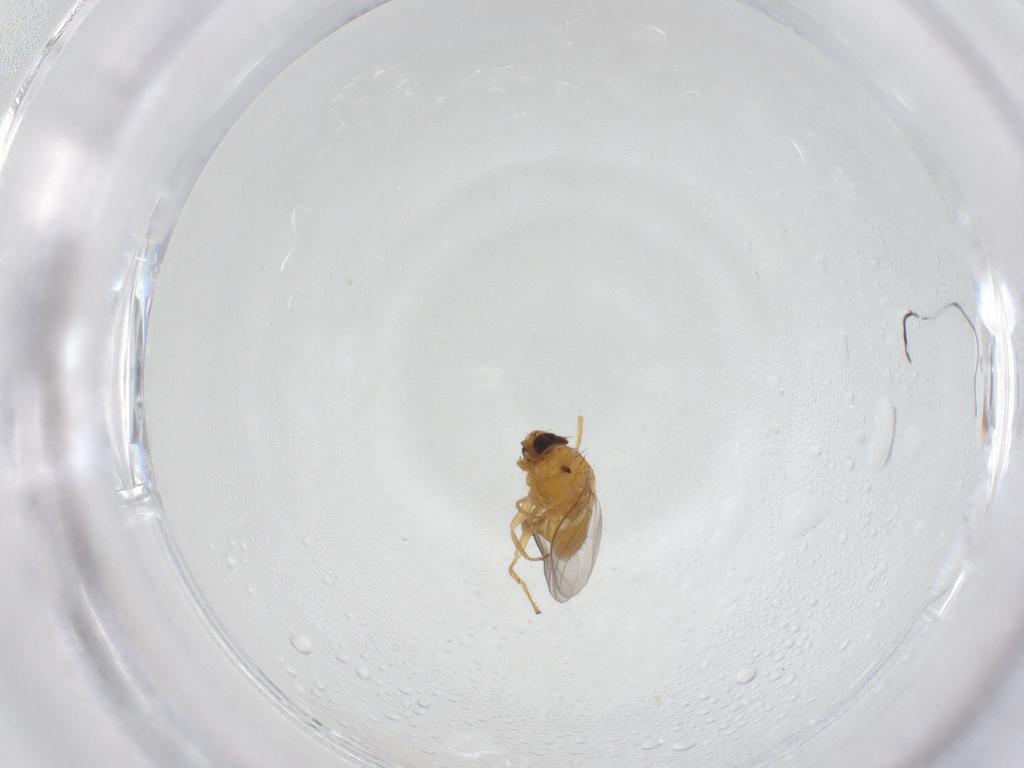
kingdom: Animalia
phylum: Arthropoda
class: Insecta
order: Diptera
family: Chloropidae
